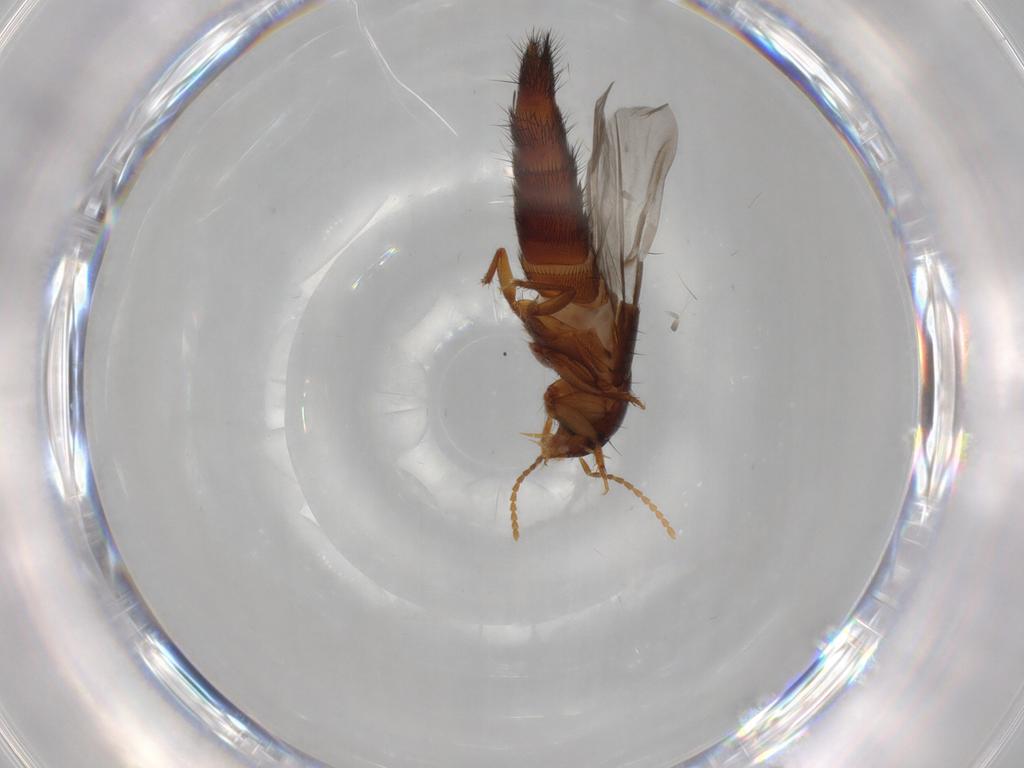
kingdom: Animalia
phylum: Arthropoda
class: Insecta
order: Coleoptera
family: Staphylinidae
